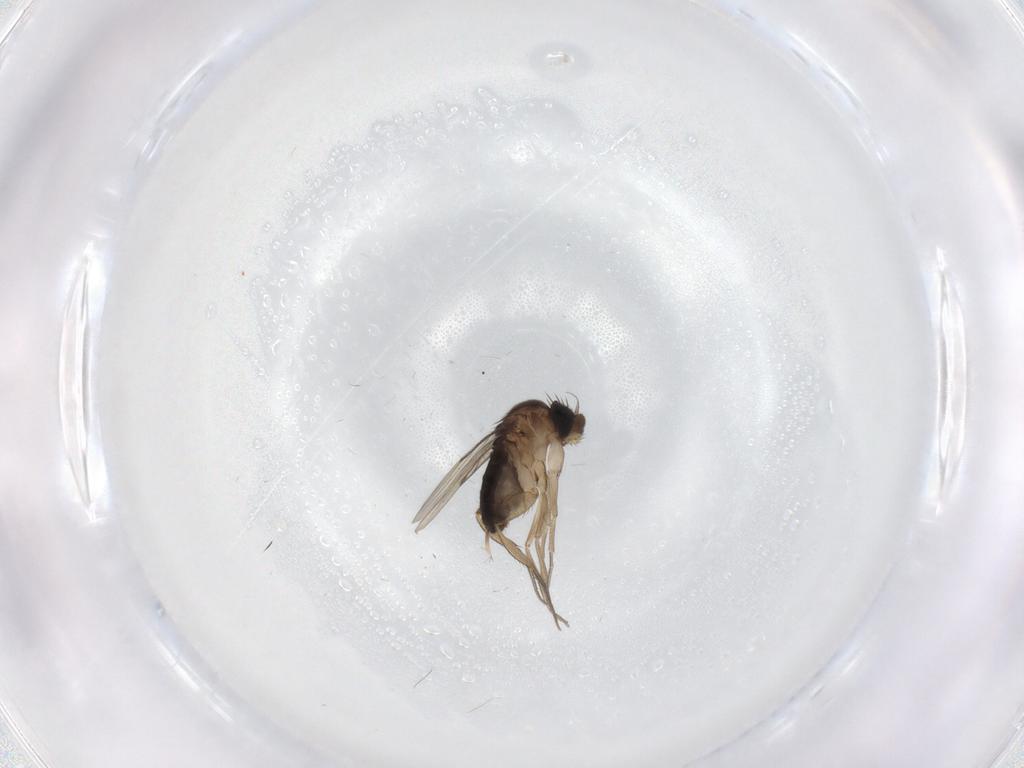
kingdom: Animalia
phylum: Arthropoda
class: Insecta
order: Diptera
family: Phoridae
